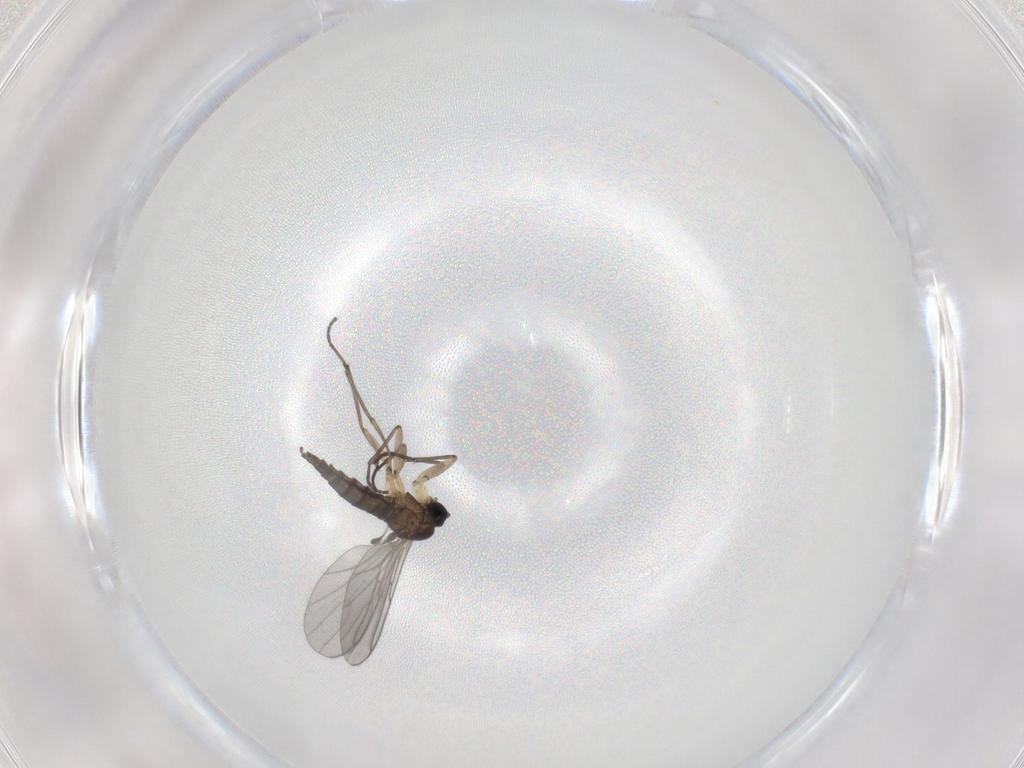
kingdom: Animalia
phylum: Arthropoda
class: Insecta
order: Diptera
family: Sciaridae
